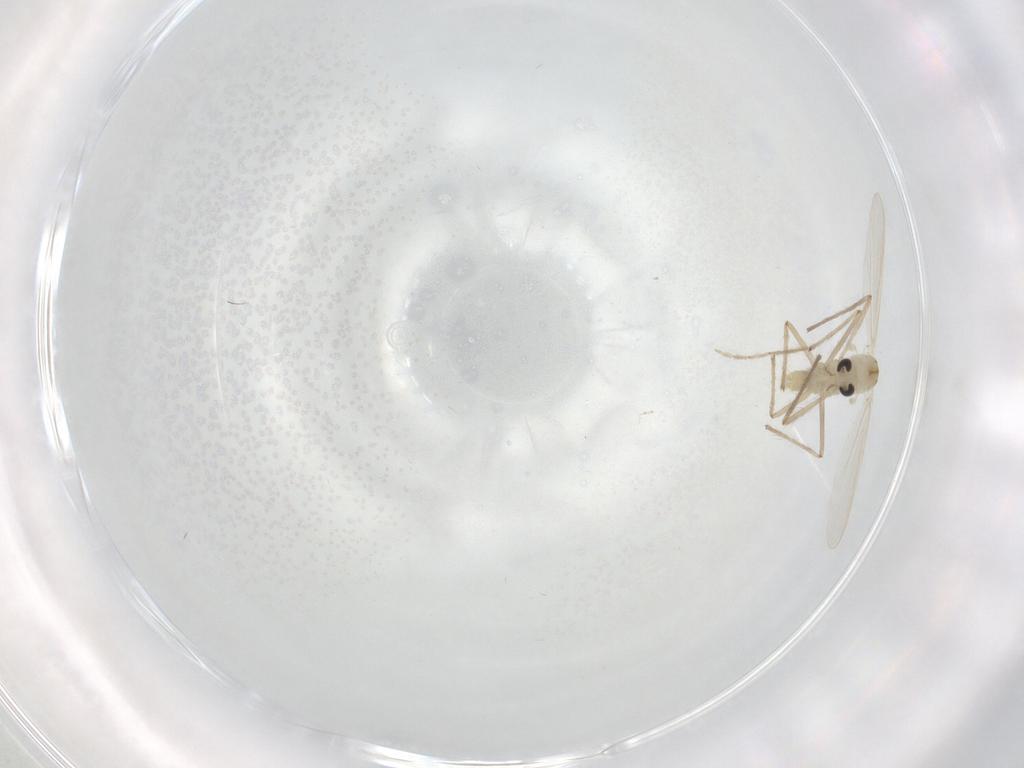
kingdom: Animalia
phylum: Arthropoda
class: Insecta
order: Diptera
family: Chironomidae
